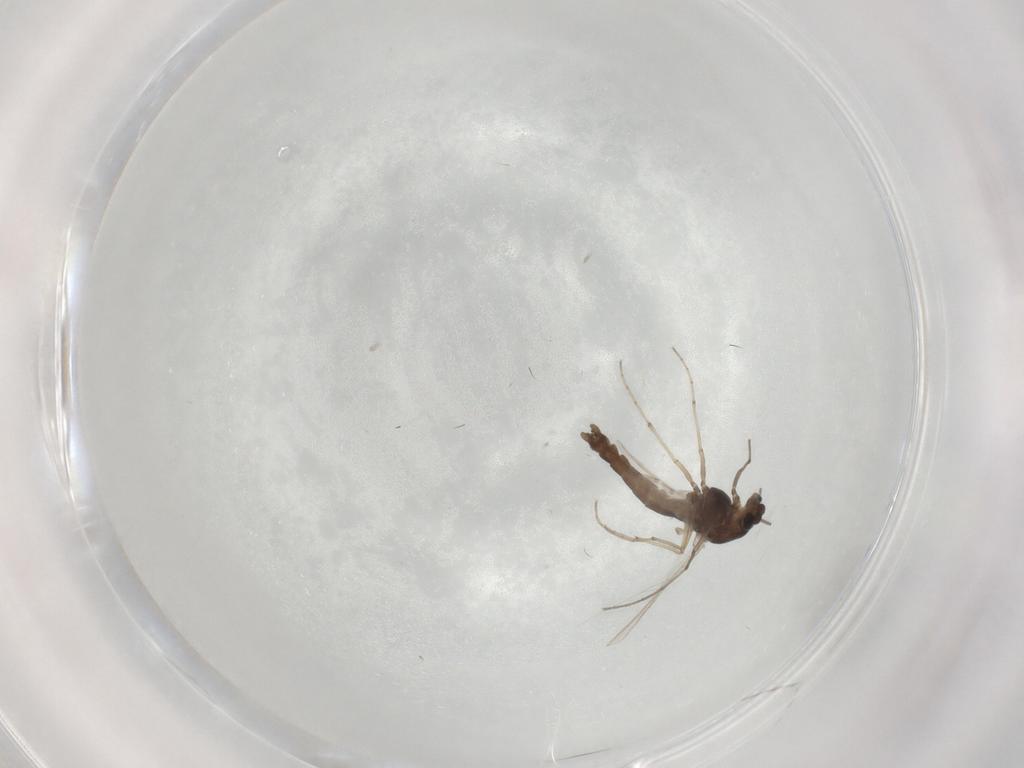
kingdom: Animalia
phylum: Arthropoda
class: Insecta
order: Diptera
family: Chironomidae
